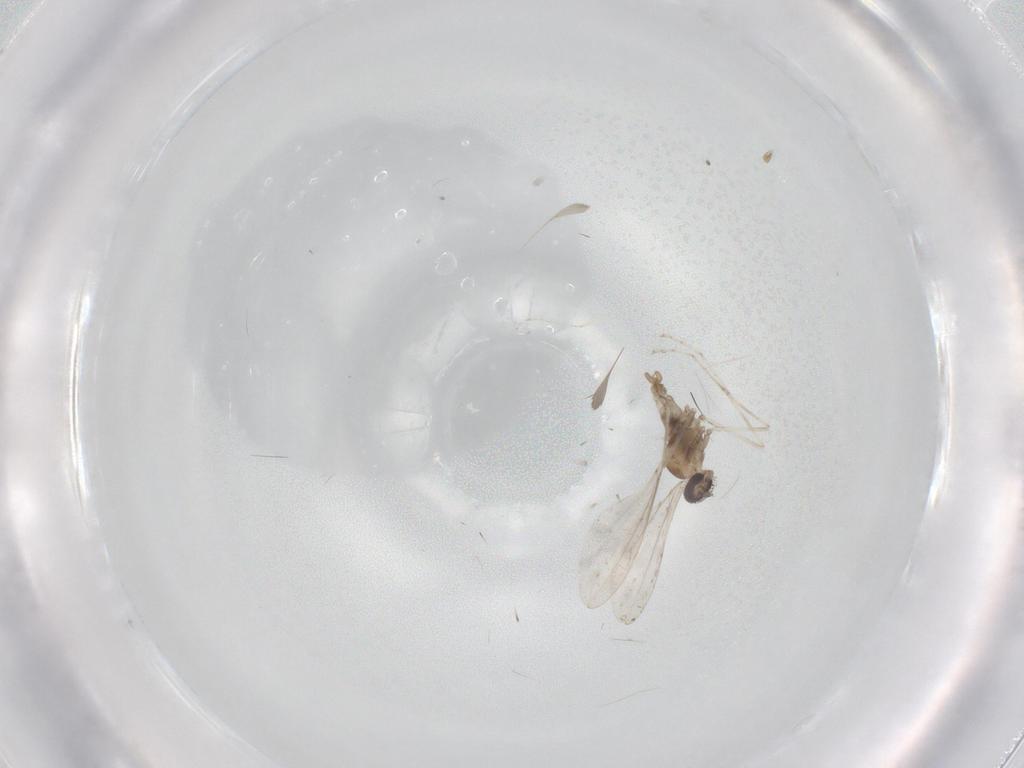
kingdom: Animalia
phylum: Arthropoda
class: Insecta
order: Diptera
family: Cecidomyiidae
